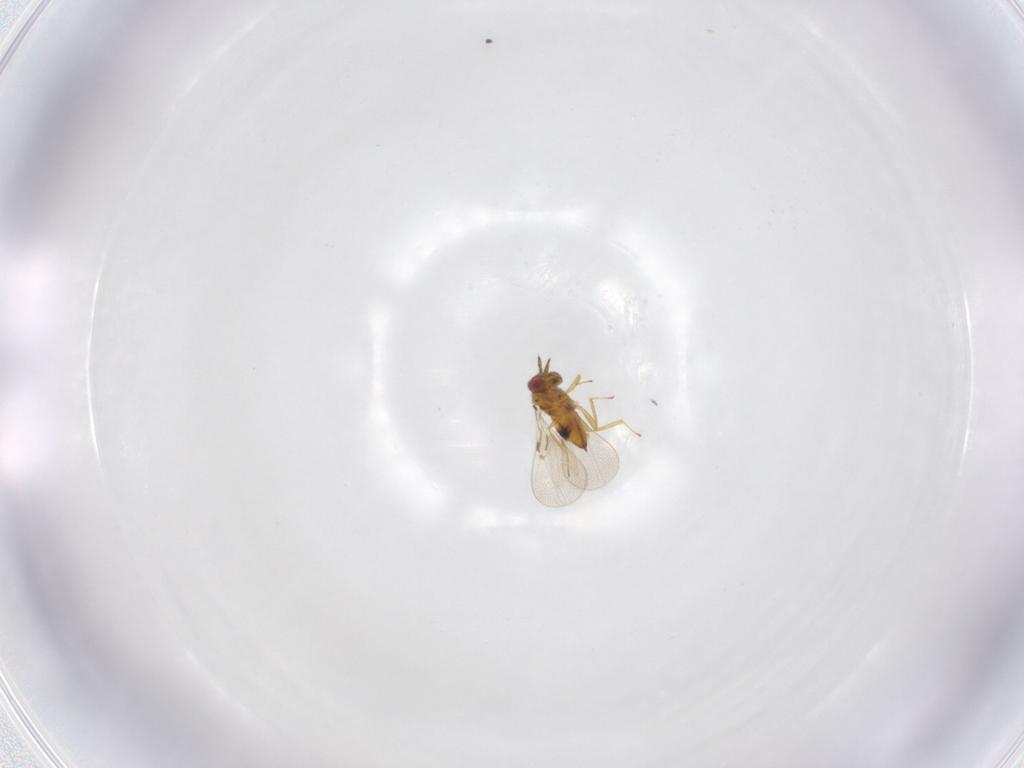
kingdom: Animalia
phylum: Arthropoda
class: Insecta
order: Hymenoptera
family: Trichogrammatidae
